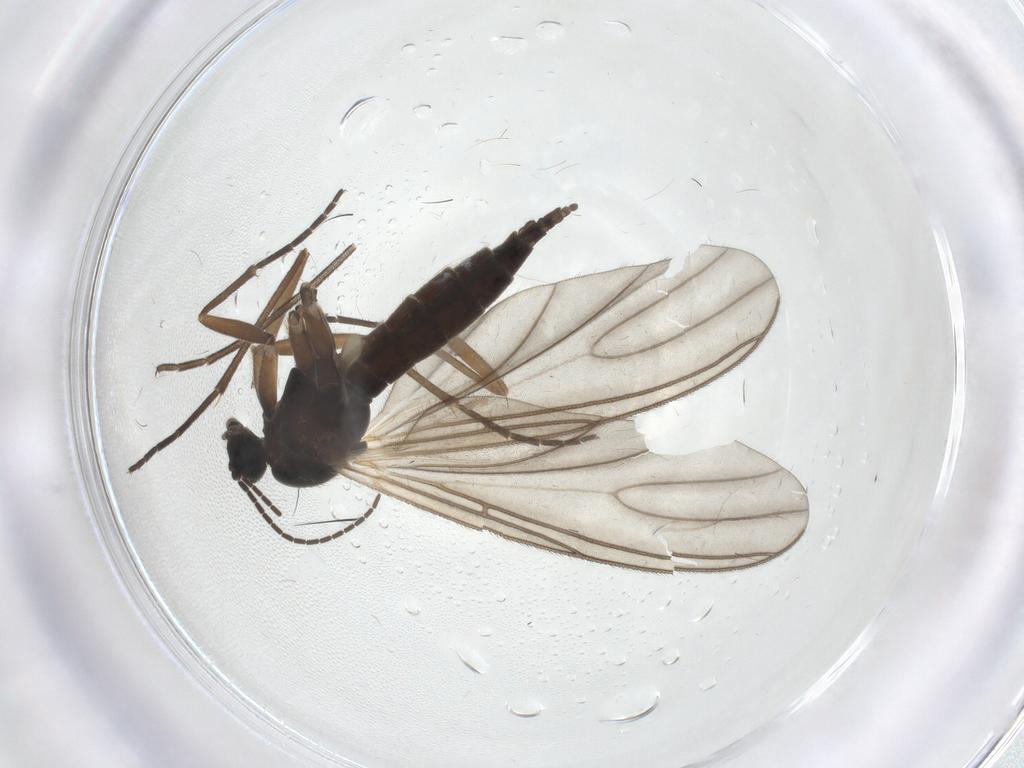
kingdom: Animalia
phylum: Arthropoda
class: Insecta
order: Diptera
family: Sciaridae
